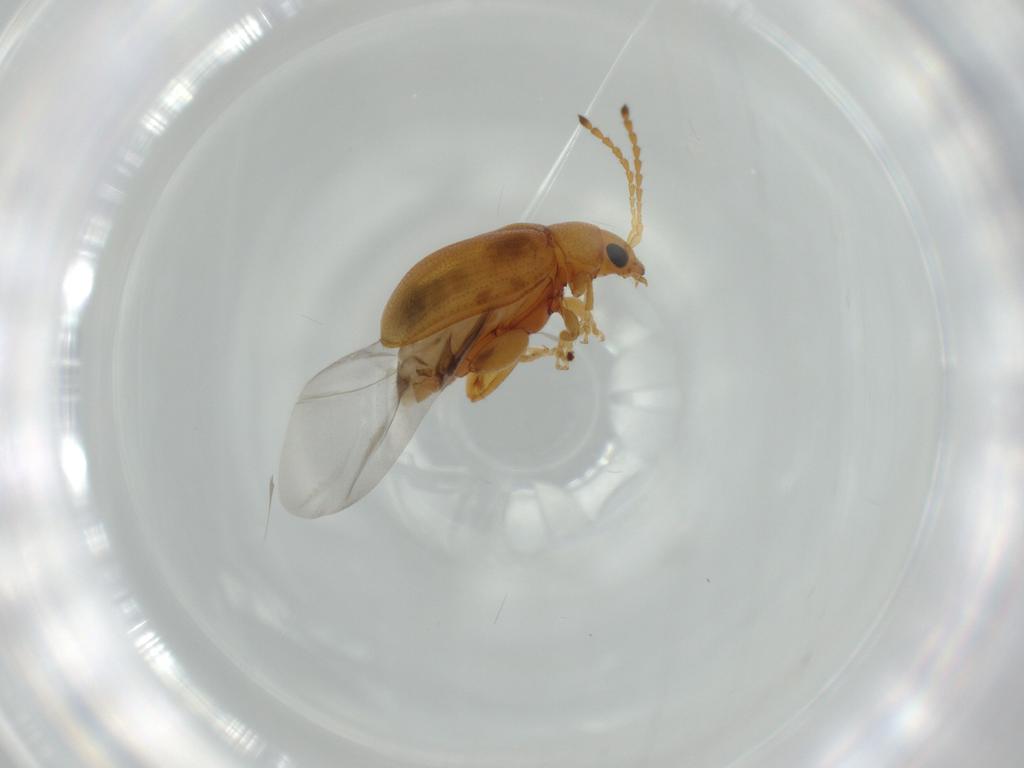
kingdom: Animalia
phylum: Arthropoda
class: Insecta
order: Coleoptera
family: Chrysomelidae
